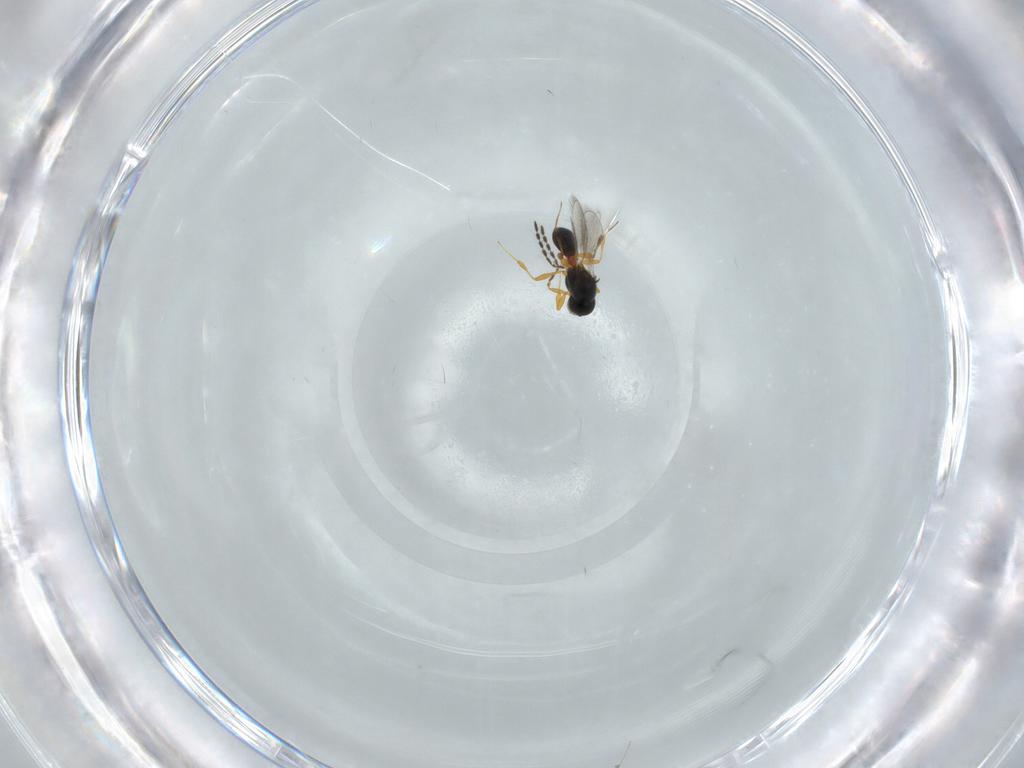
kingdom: Animalia
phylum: Arthropoda
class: Insecta
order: Hymenoptera
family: Platygastridae
